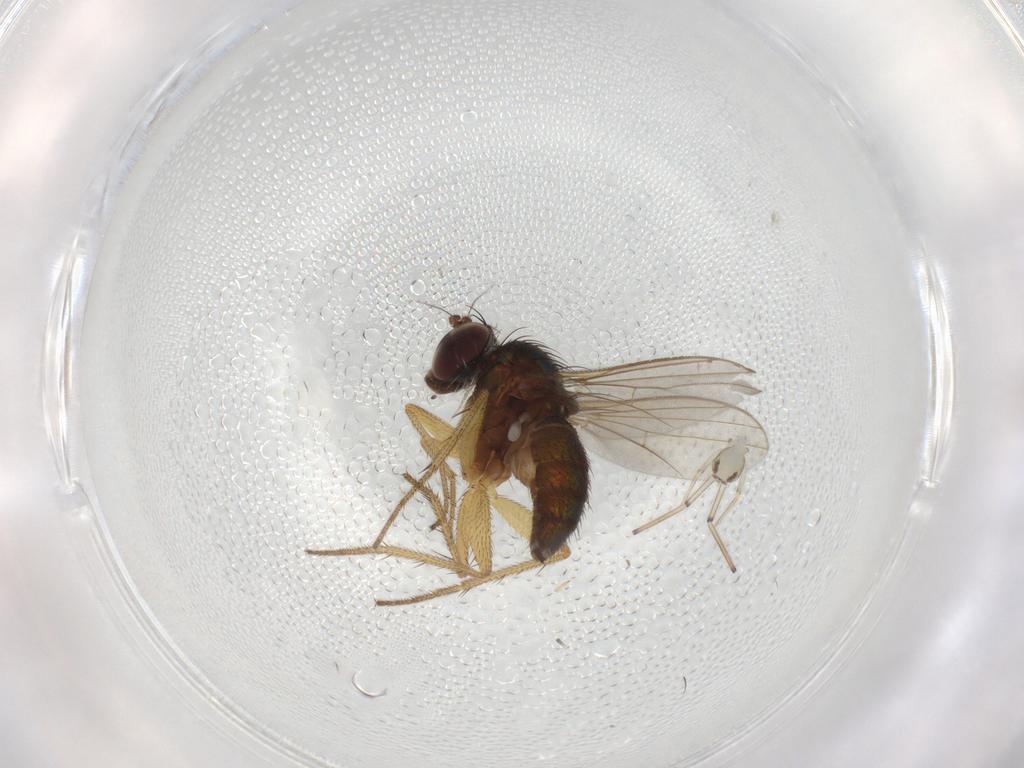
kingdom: Animalia
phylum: Arthropoda
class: Insecta
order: Diptera
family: Dolichopodidae
